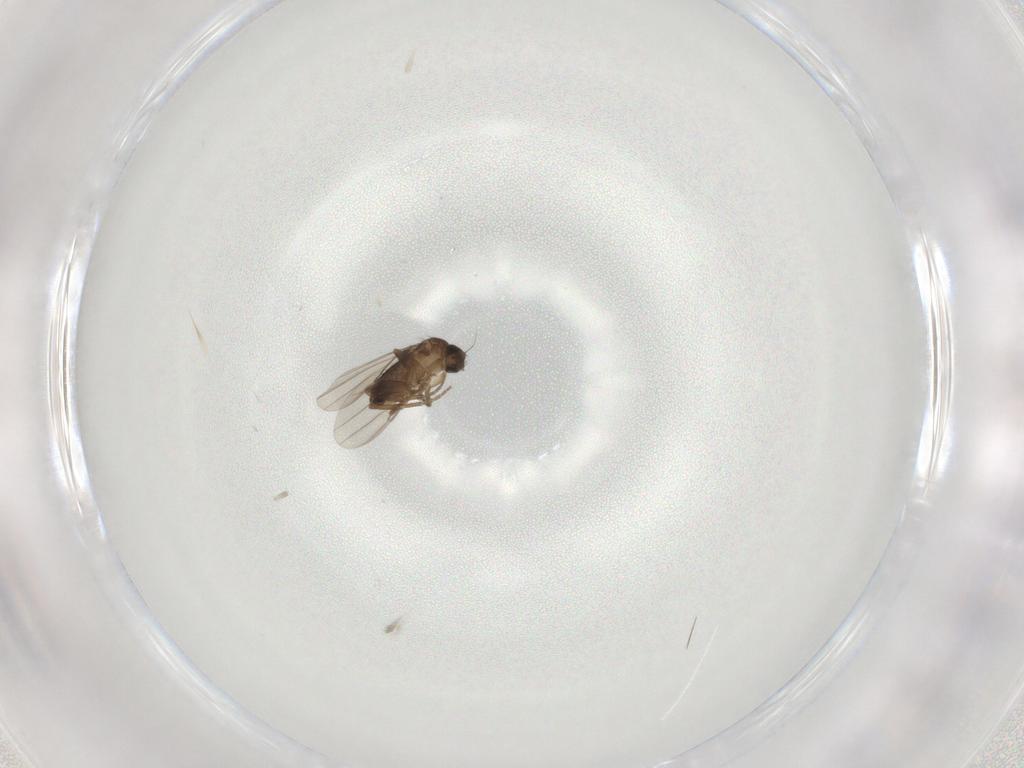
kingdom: Animalia
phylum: Arthropoda
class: Insecta
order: Diptera
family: Phoridae
